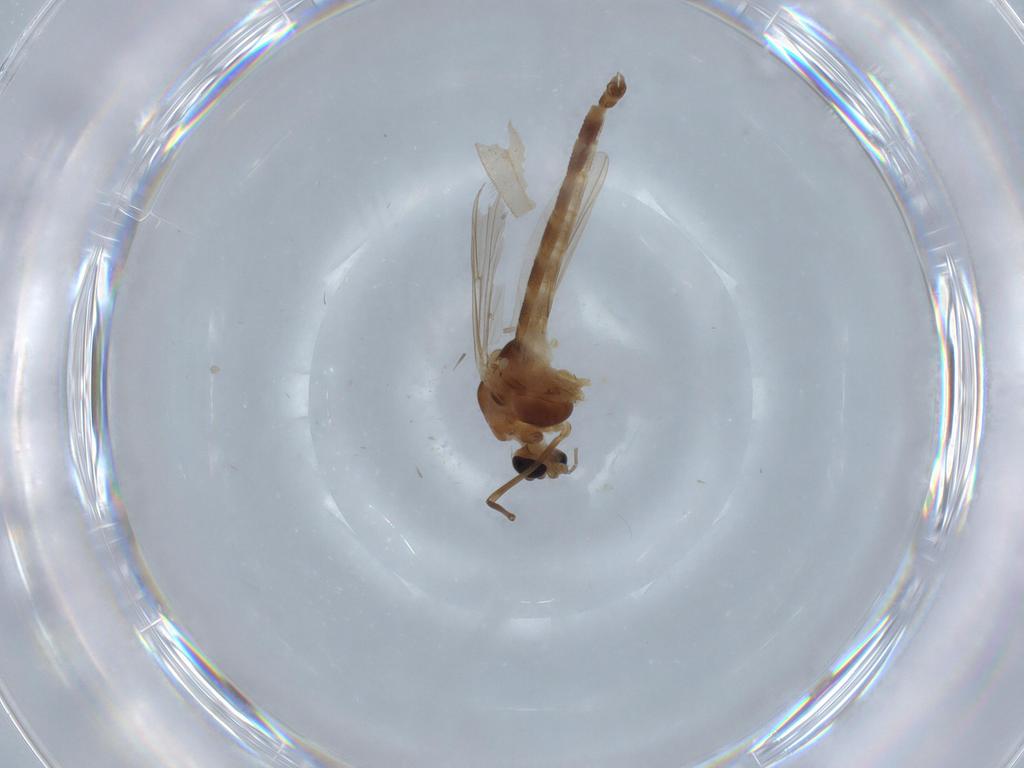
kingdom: Animalia
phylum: Arthropoda
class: Insecta
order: Diptera
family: Chironomidae
